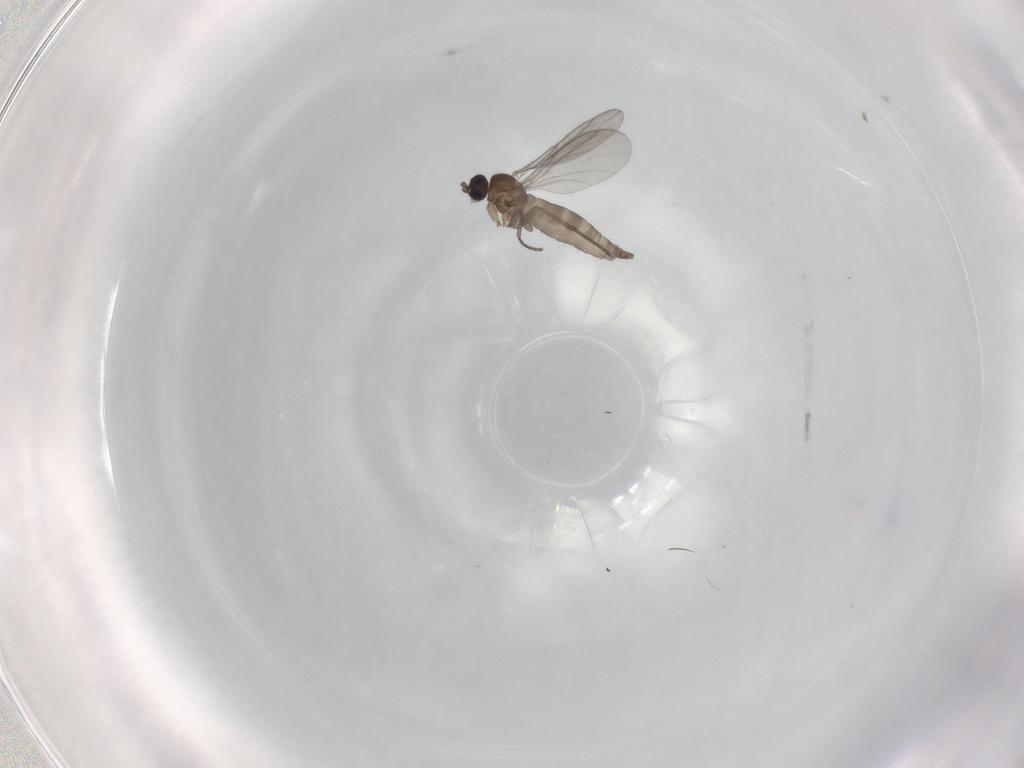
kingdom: Animalia
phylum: Arthropoda
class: Insecta
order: Diptera
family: Sciaridae
